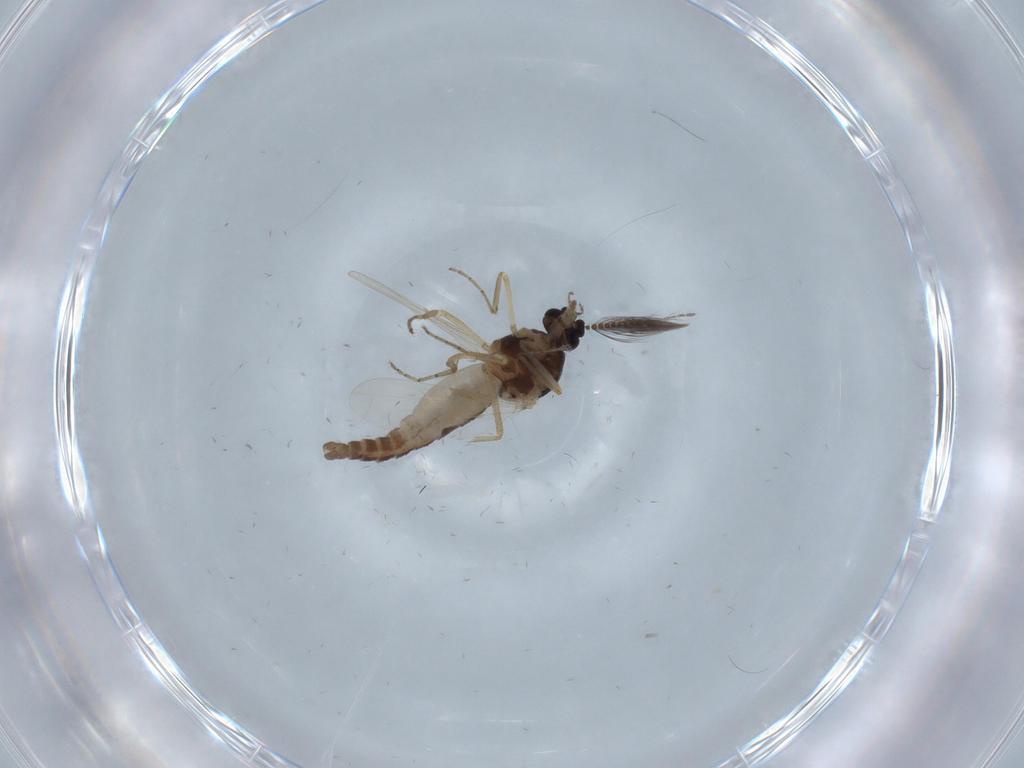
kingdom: Animalia
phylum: Arthropoda
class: Insecta
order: Diptera
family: Ceratopogonidae
